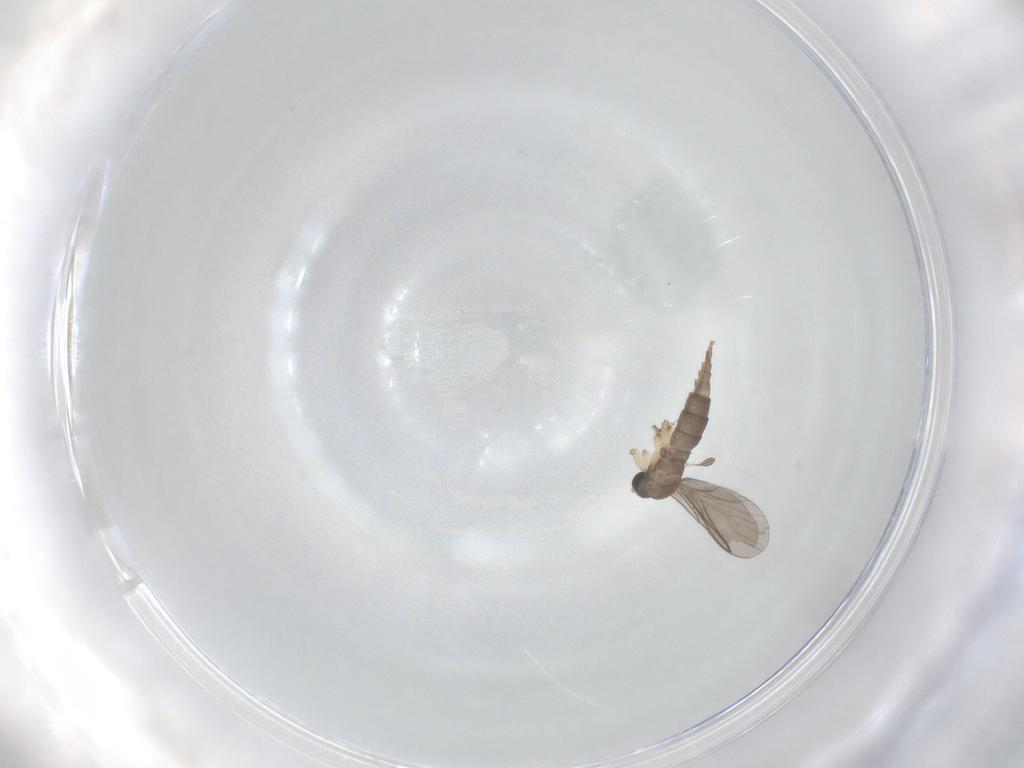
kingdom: Animalia
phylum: Arthropoda
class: Insecta
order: Diptera
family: Sciaridae
